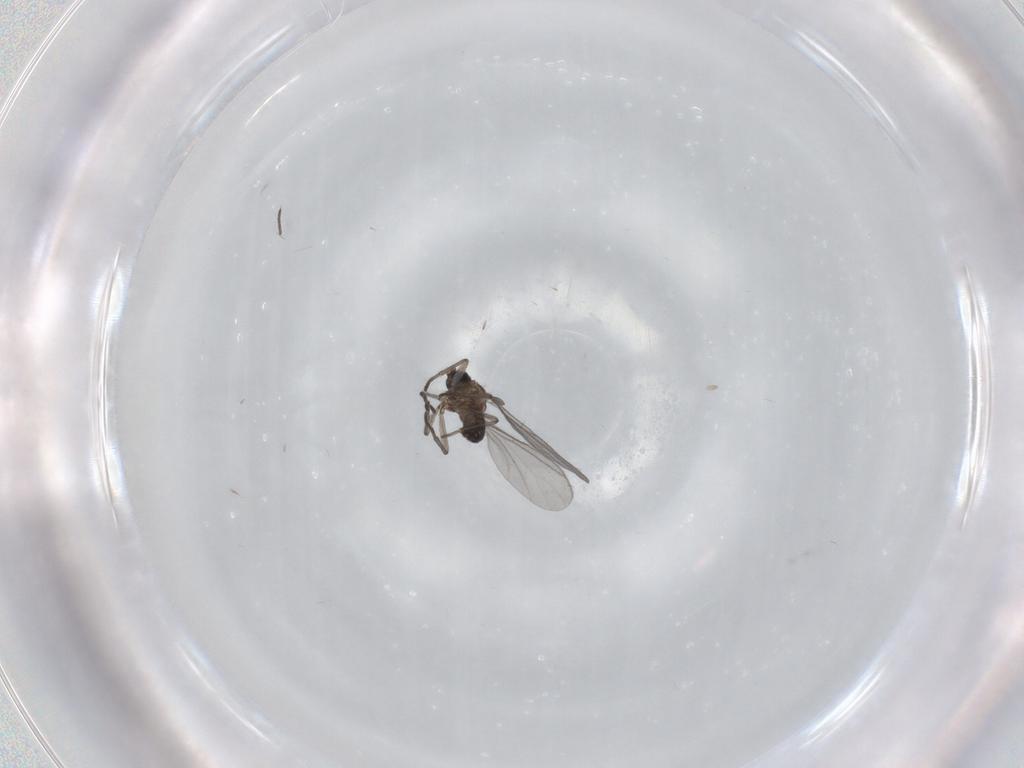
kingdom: Animalia
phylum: Arthropoda
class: Insecta
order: Diptera
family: Sciaridae
